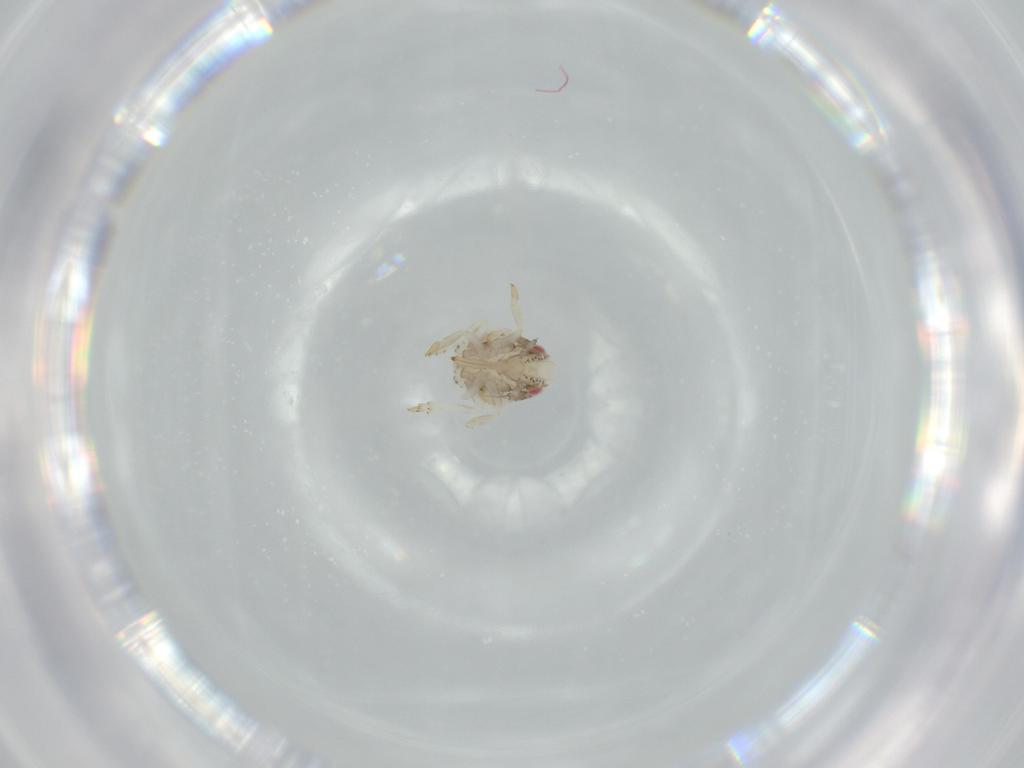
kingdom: Animalia
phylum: Arthropoda
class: Insecta
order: Hemiptera
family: Acanaloniidae
